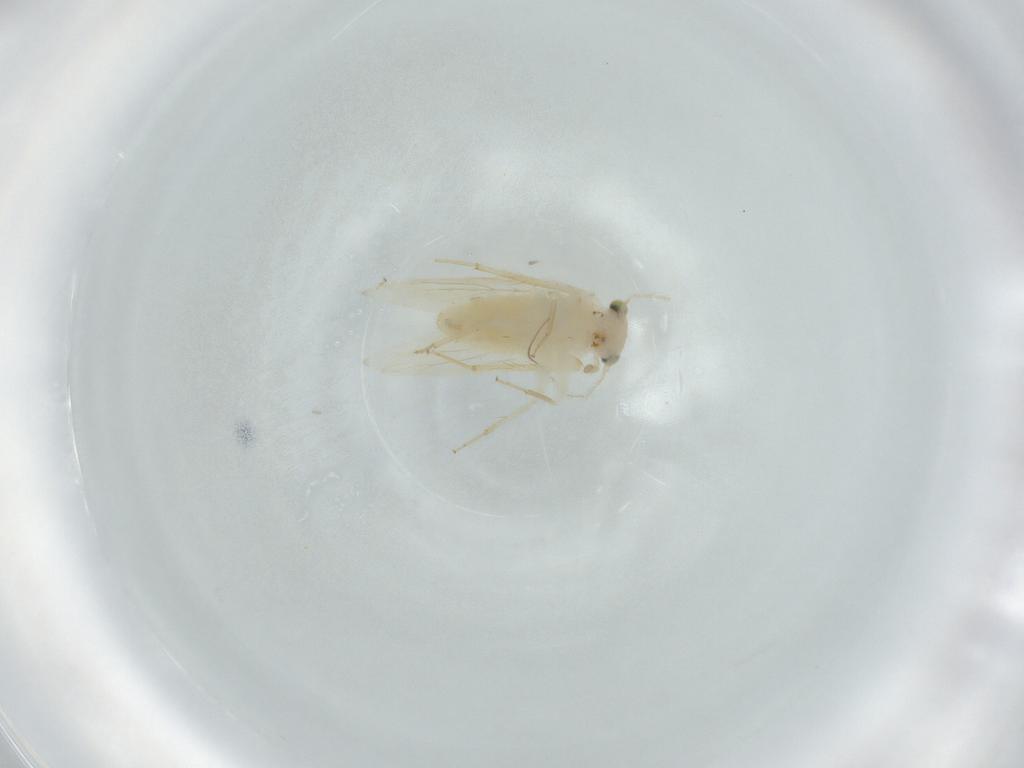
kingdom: Animalia
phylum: Arthropoda
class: Insecta
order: Psocodea
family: Lepidopsocidae
